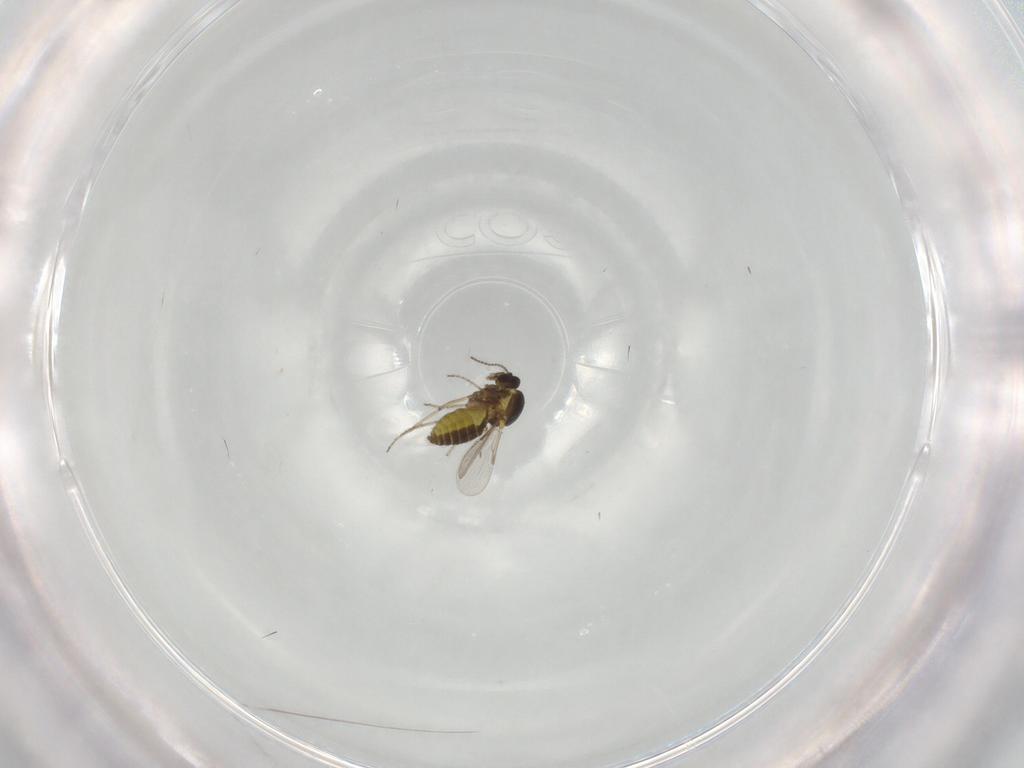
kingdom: Animalia
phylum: Arthropoda
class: Insecta
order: Diptera
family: Ceratopogonidae
